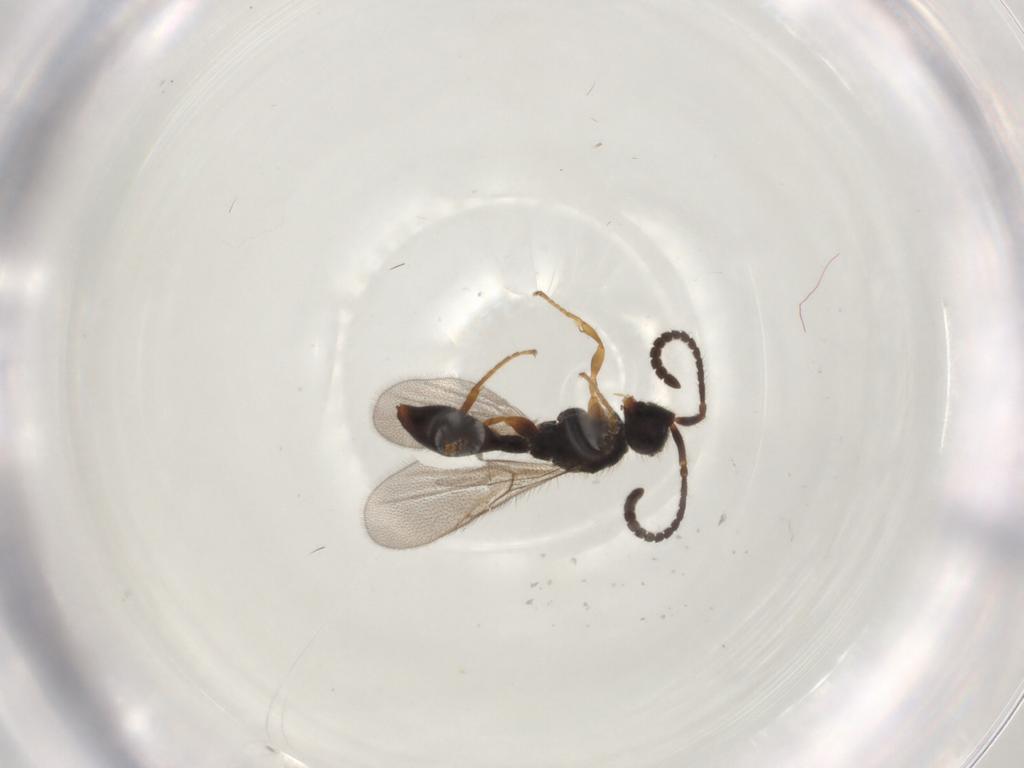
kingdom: Animalia
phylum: Arthropoda
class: Insecta
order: Hymenoptera
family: Diapriidae
